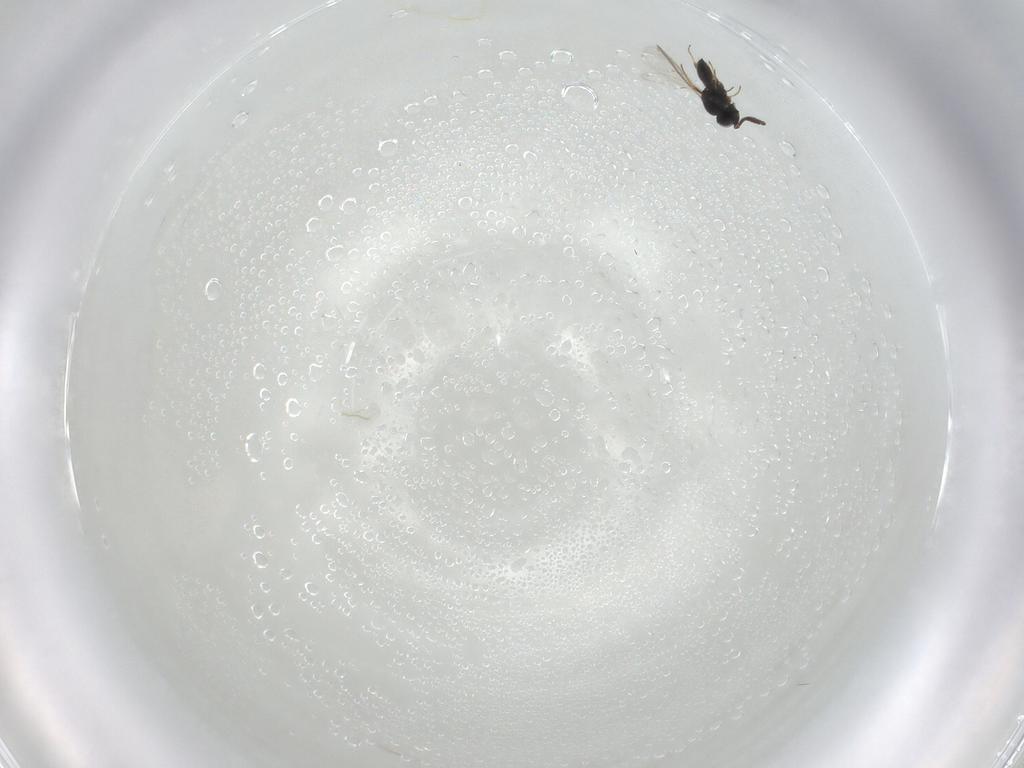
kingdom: Animalia
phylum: Arthropoda
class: Insecta
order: Hymenoptera
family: Scelionidae
